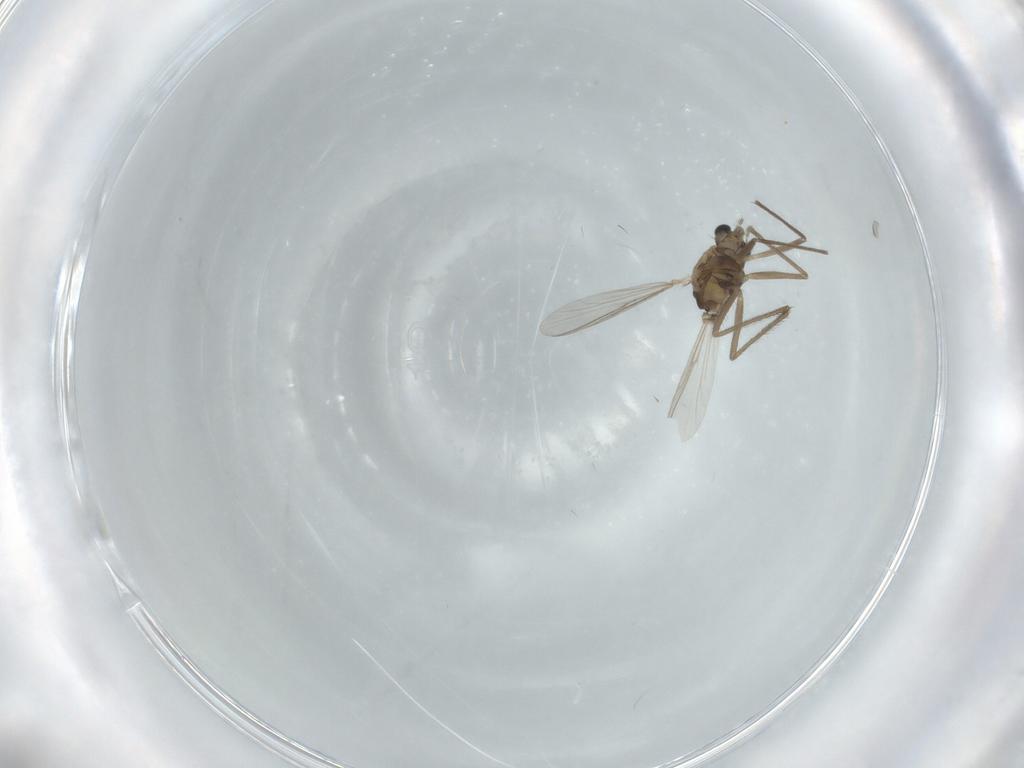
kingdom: Animalia
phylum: Arthropoda
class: Insecta
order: Diptera
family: Chironomidae
